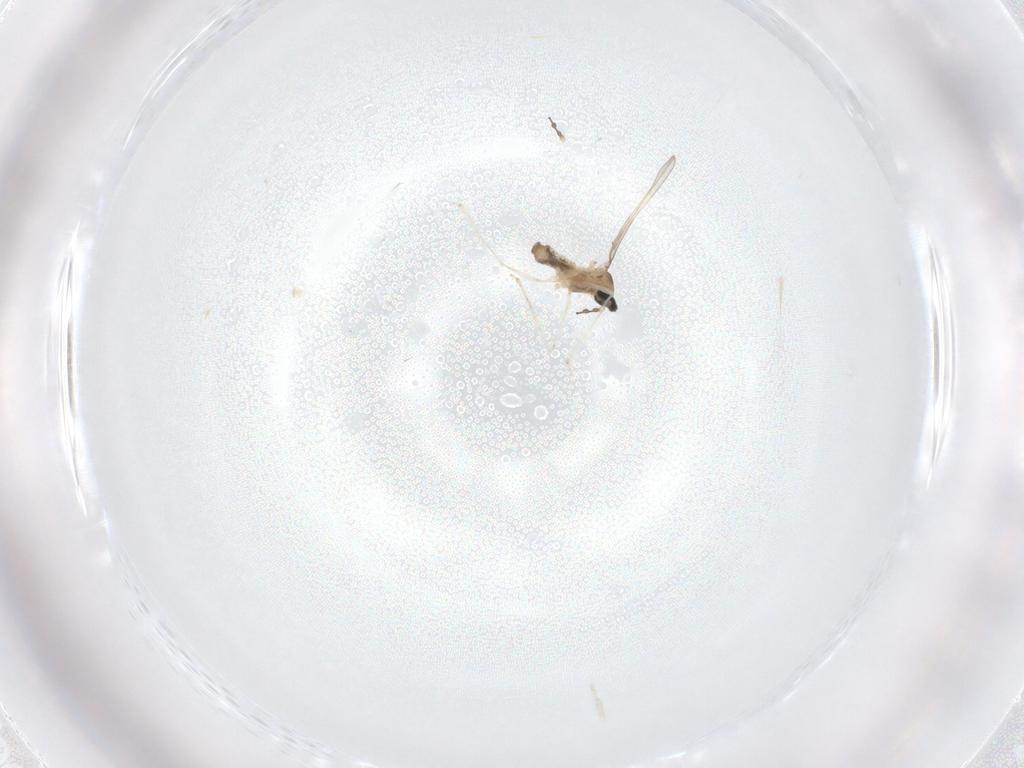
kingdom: Animalia
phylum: Arthropoda
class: Insecta
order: Diptera
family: Cecidomyiidae
